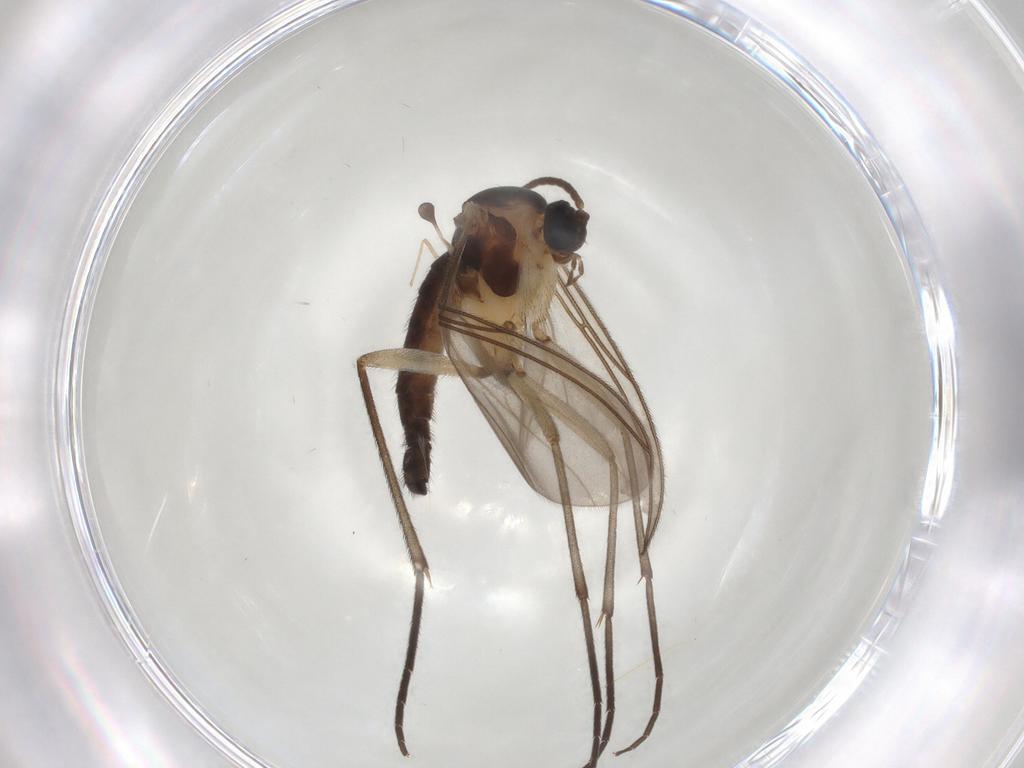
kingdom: Animalia
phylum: Arthropoda
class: Insecta
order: Diptera
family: Sciaridae
